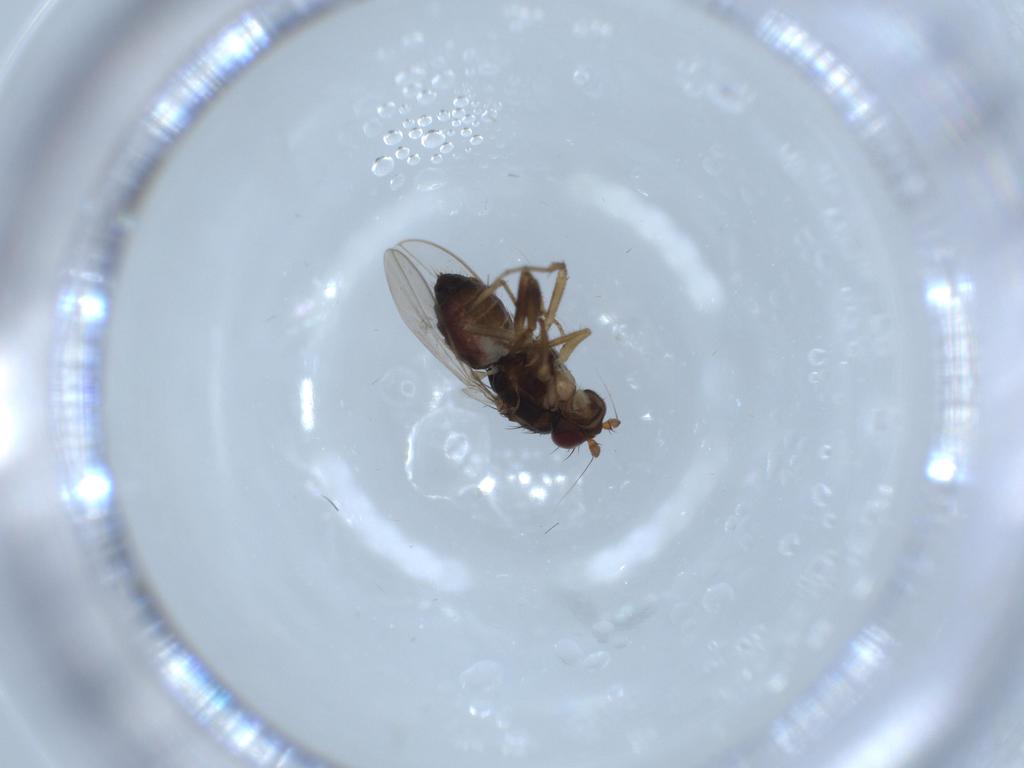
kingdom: Animalia
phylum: Arthropoda
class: Insecta
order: Diptera
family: Sphaeroceridae
